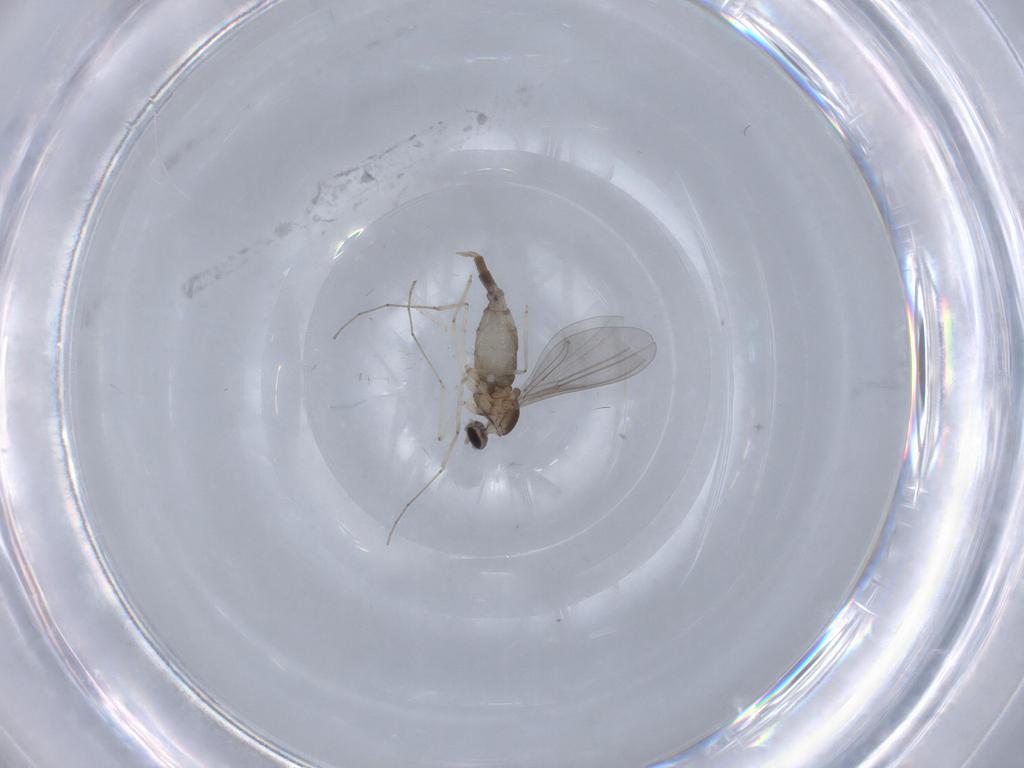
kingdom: Animalia
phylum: Arthropoda
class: Insecta
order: Diptera
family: Cecidomyiidae
